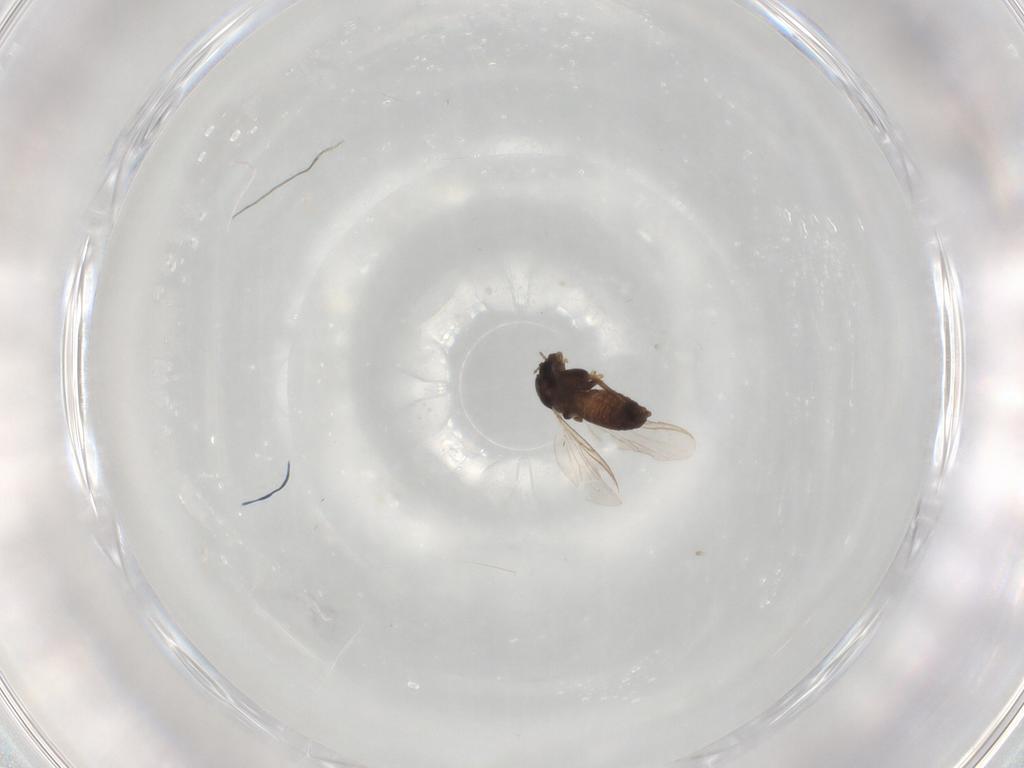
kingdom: Animalia
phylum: Arthropoda
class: Insecta
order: Diptera
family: Chironomidae
